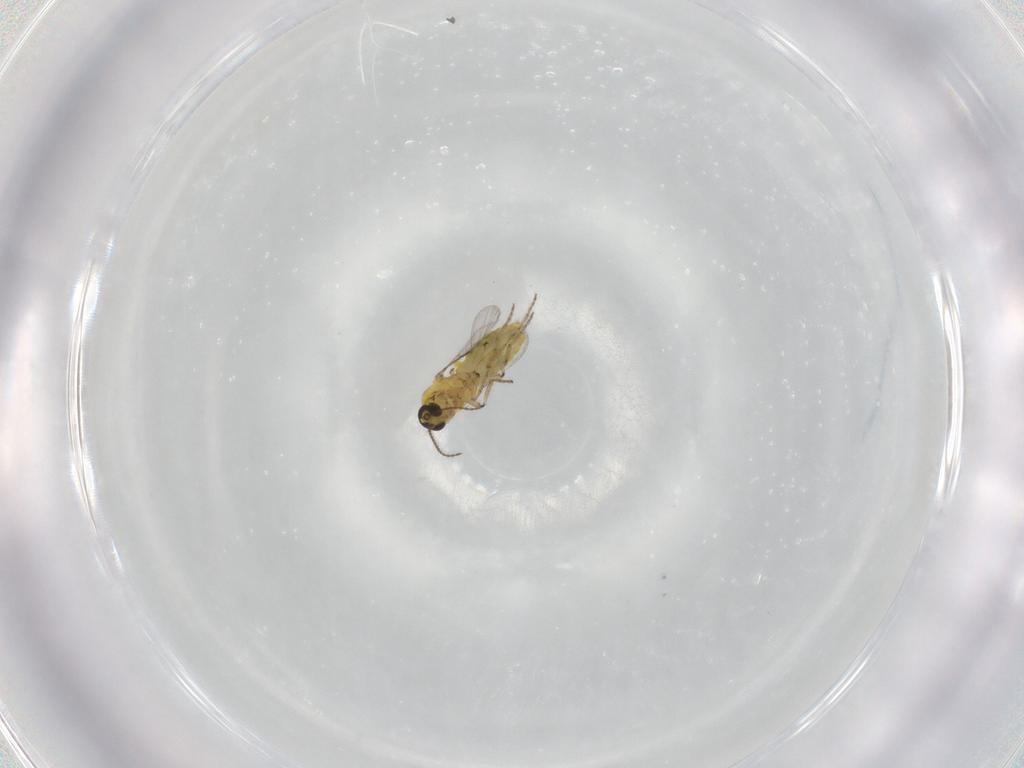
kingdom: Animalia
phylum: Arthropoda
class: Insecta
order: Diptera
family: Ceratopogonidae
